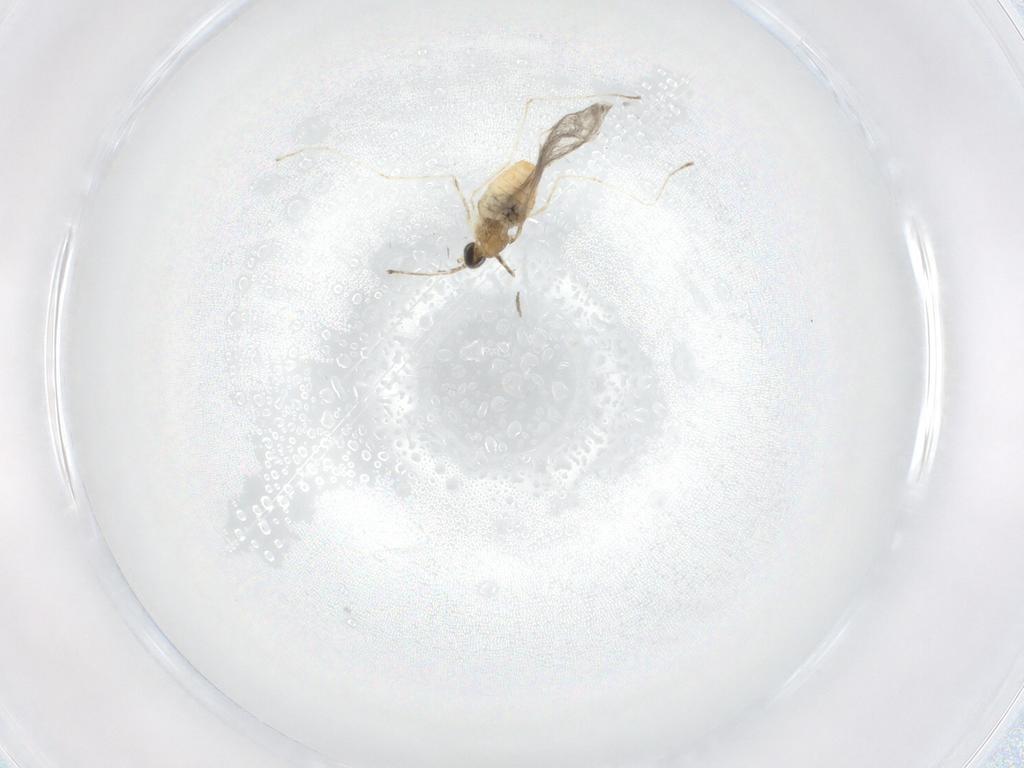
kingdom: Animalia
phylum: Arthropoda
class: Insecta
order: Diptera
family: Cecidomyiidae
